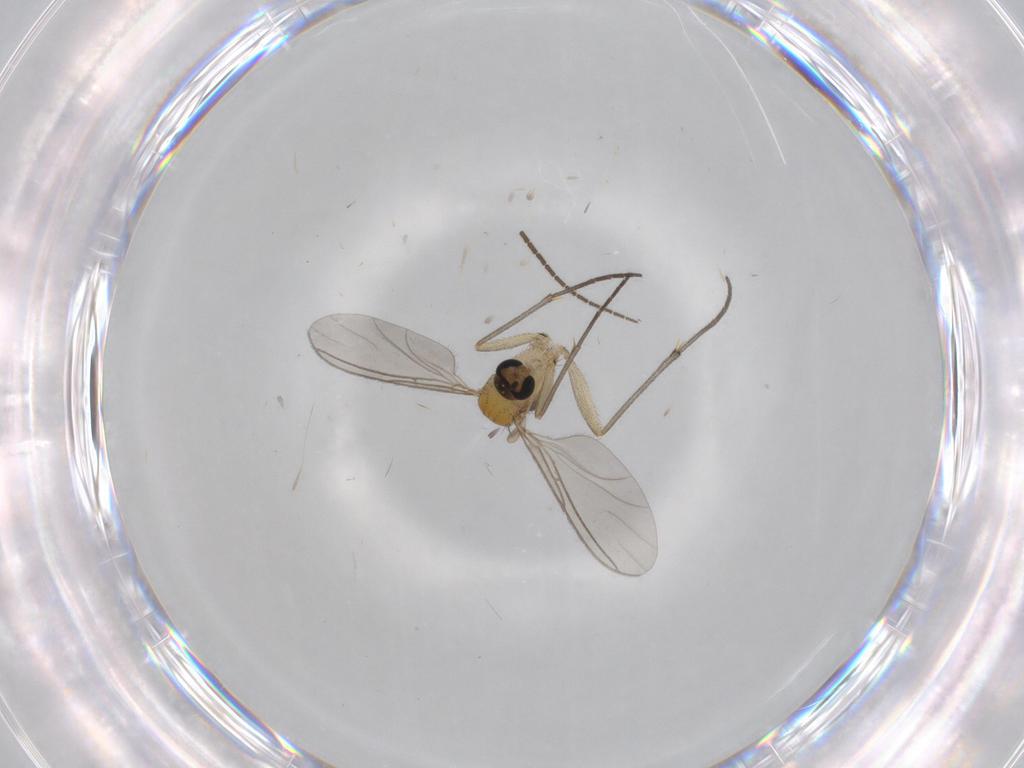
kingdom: Animalia
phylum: Arthropoda
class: Insecta
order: Diptera
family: Sciaridae
